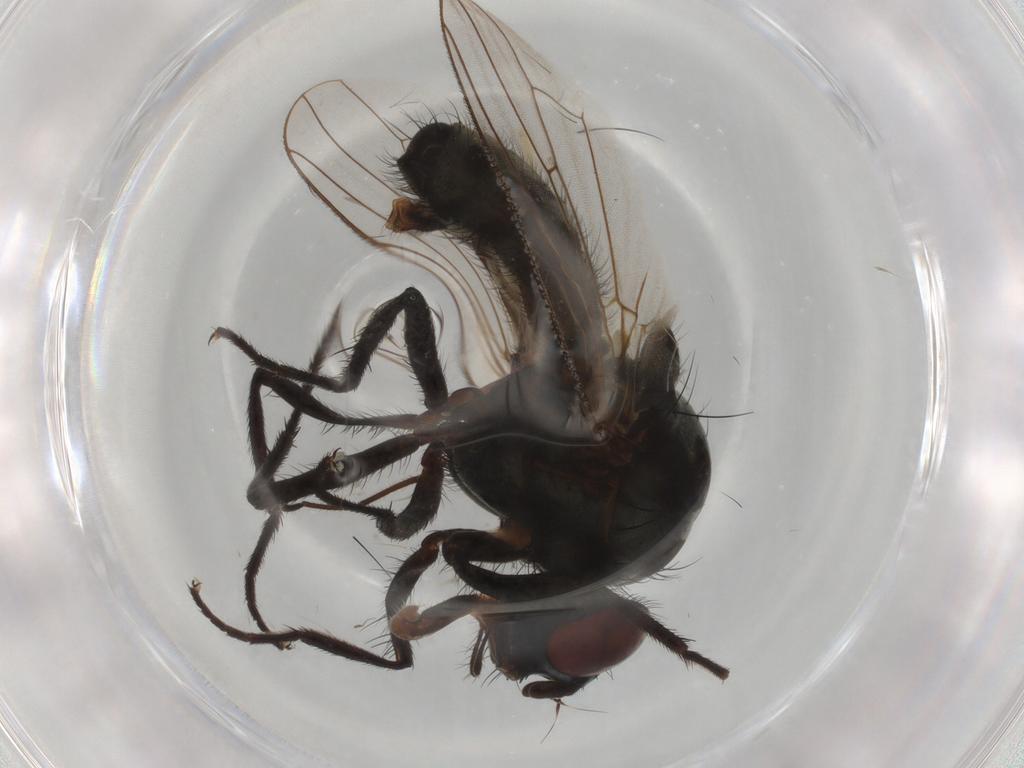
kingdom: Animalia
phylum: Arthropoda
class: Insecta
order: Diptera
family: Anthomyiidae
